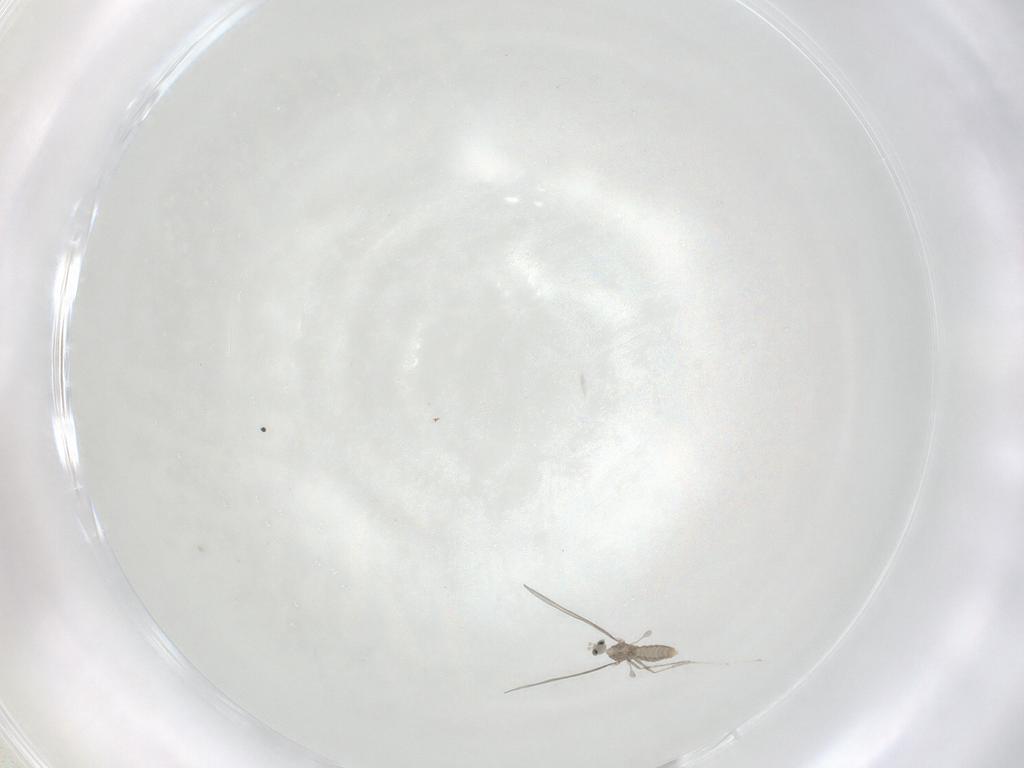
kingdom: Animalia
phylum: Arthropoda
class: Insecta
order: Diptera
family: Cecidomyiidae
